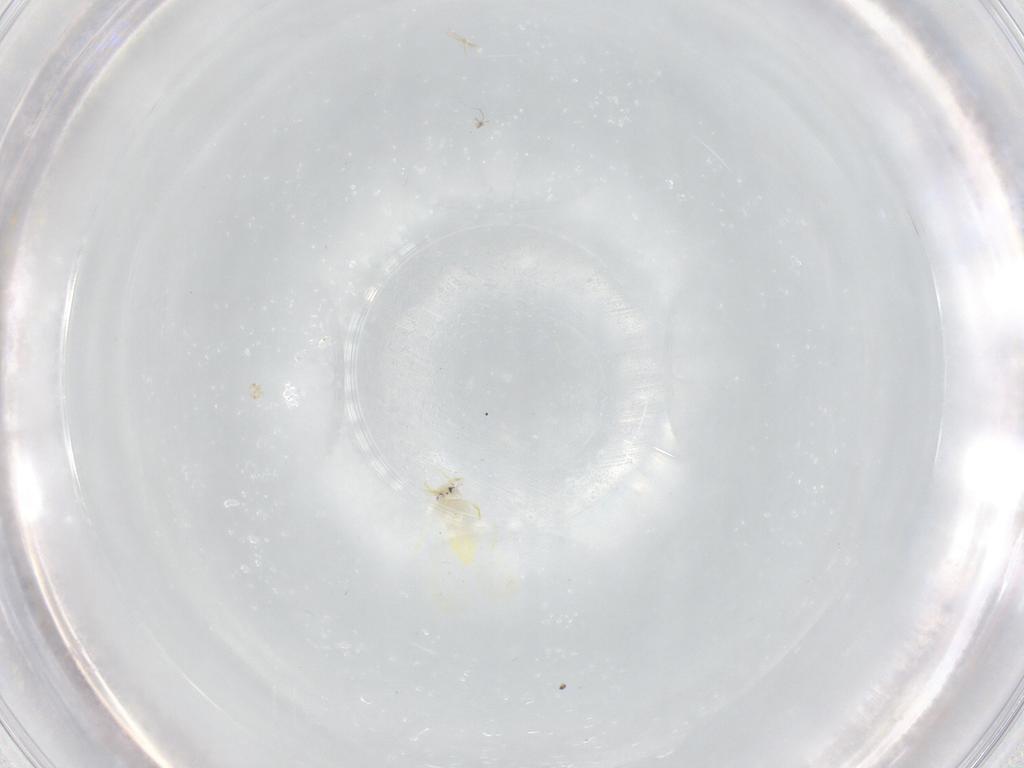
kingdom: Animalia
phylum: Arthropoda
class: Insecta
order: Hemiptera
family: Aleyrodidae
